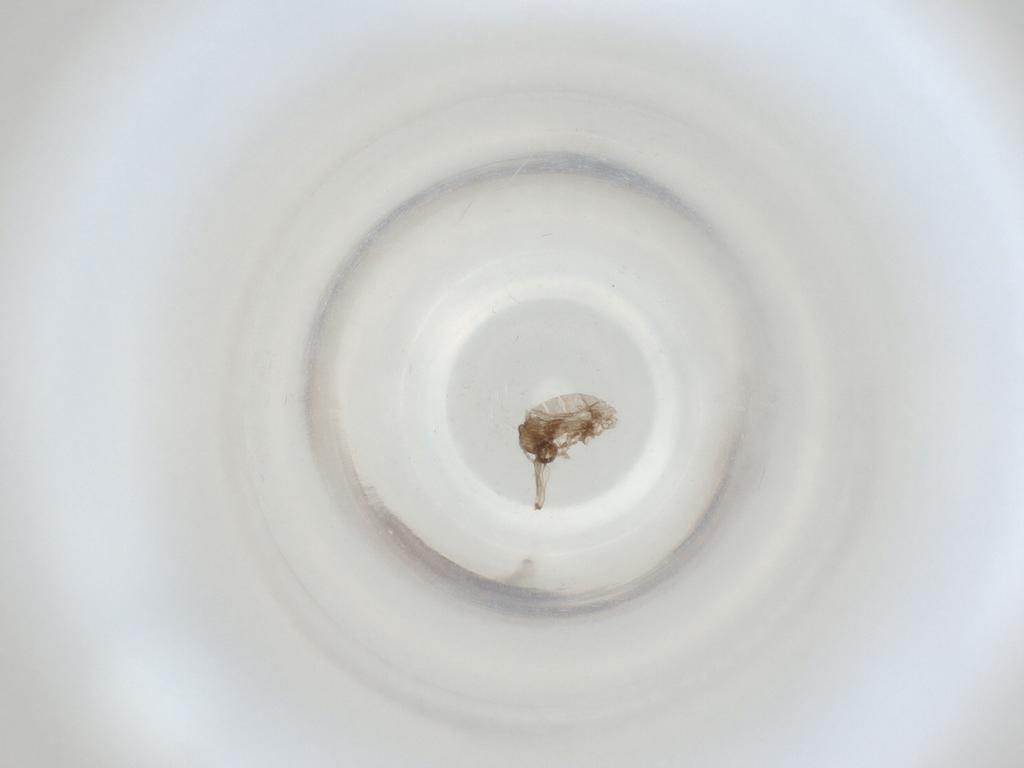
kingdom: Animalia
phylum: Arthropoda
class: Insecta
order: Diptera
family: Cecidomyiidae
